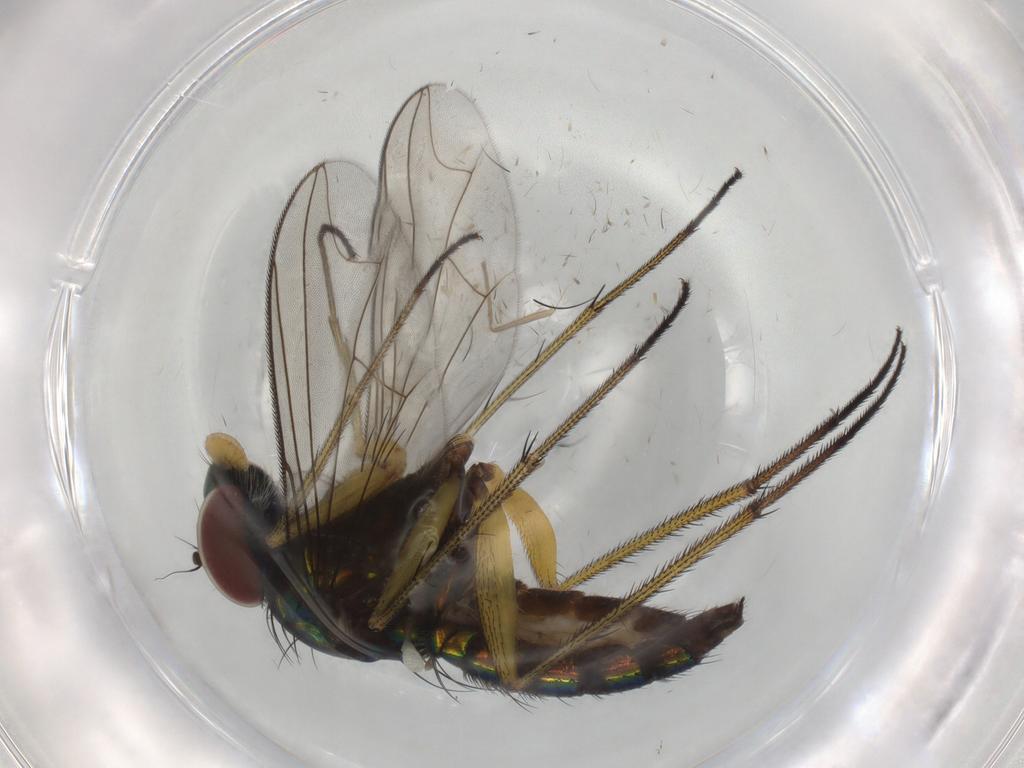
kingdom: Animalia
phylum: Arthropoda
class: Insecta
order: Diptera
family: Dolichopodidae
